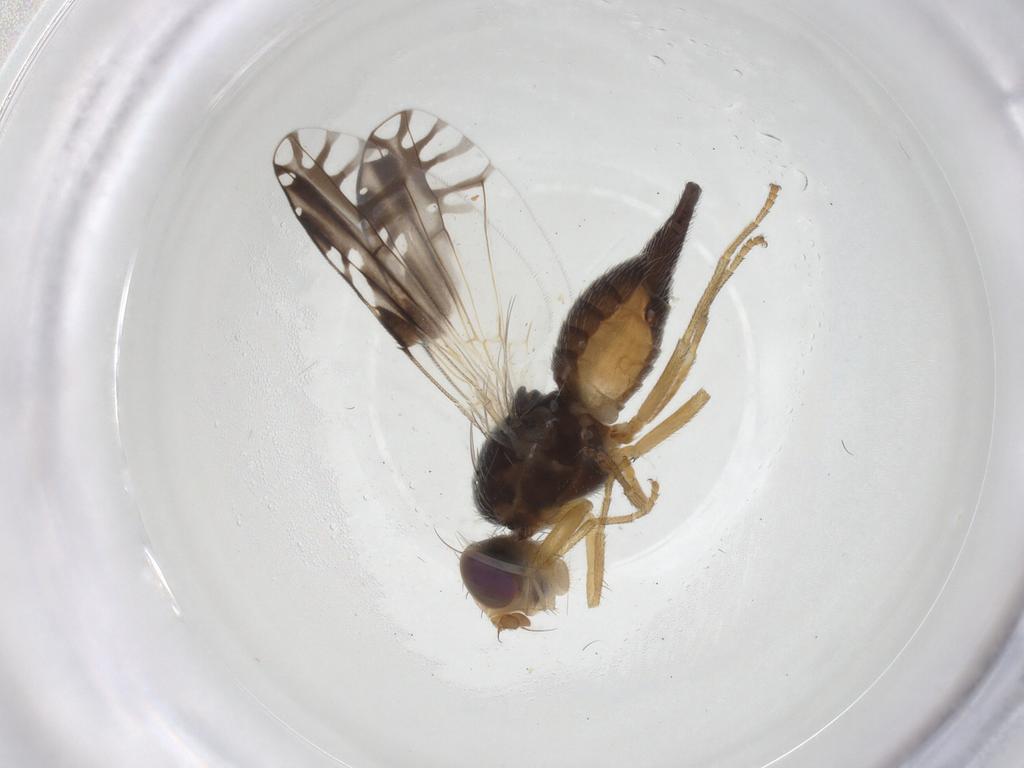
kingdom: Animalia
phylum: Arthropoda
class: Insecta
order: Diptera
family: Tephritidae
